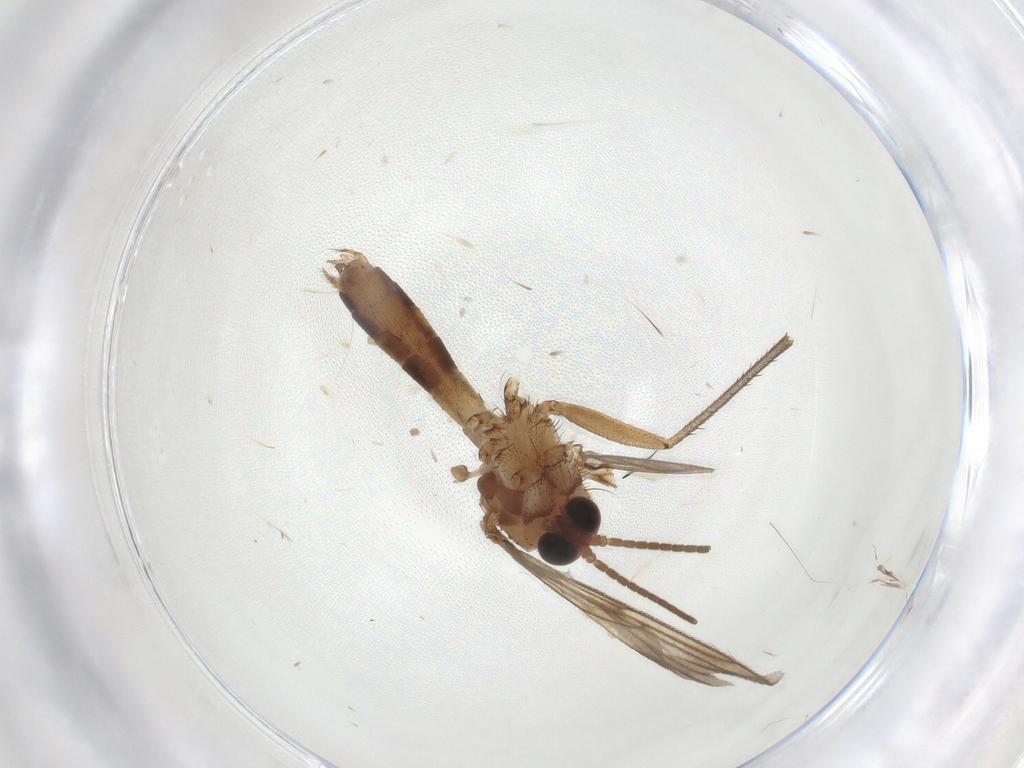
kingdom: Animalia
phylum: Arthropoda
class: Insecta
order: Diptera
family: Mycetophilidae
